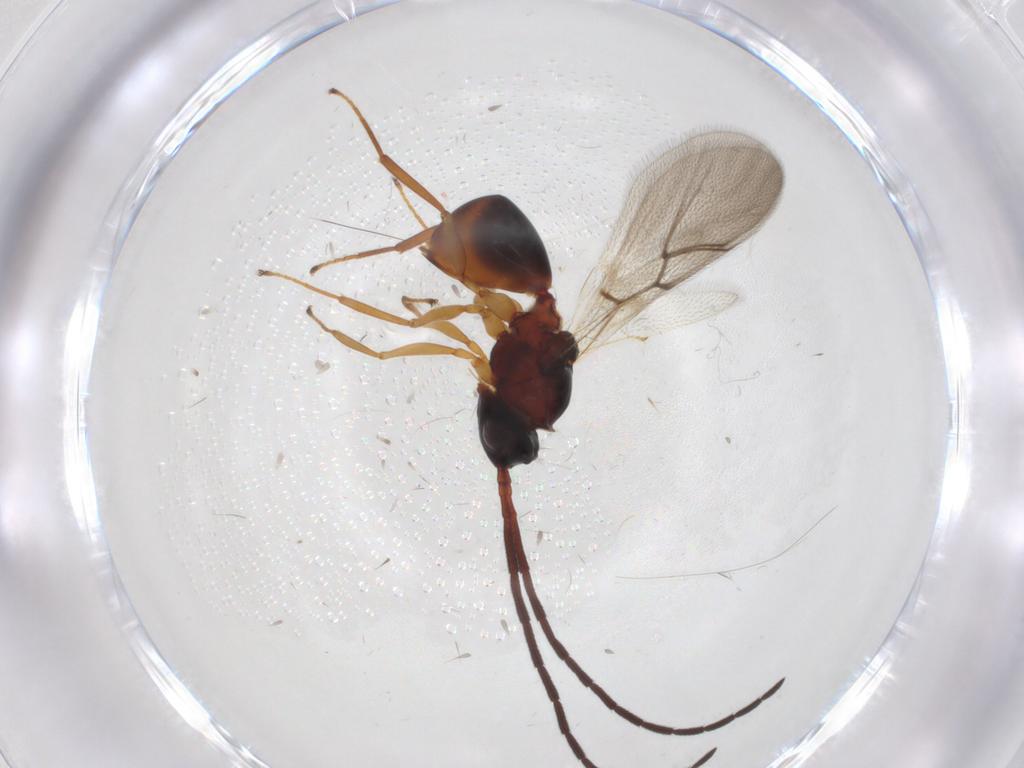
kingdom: Animalia
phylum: Arthropoda
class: Insecta
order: Hymenoptera
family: Figitidae
